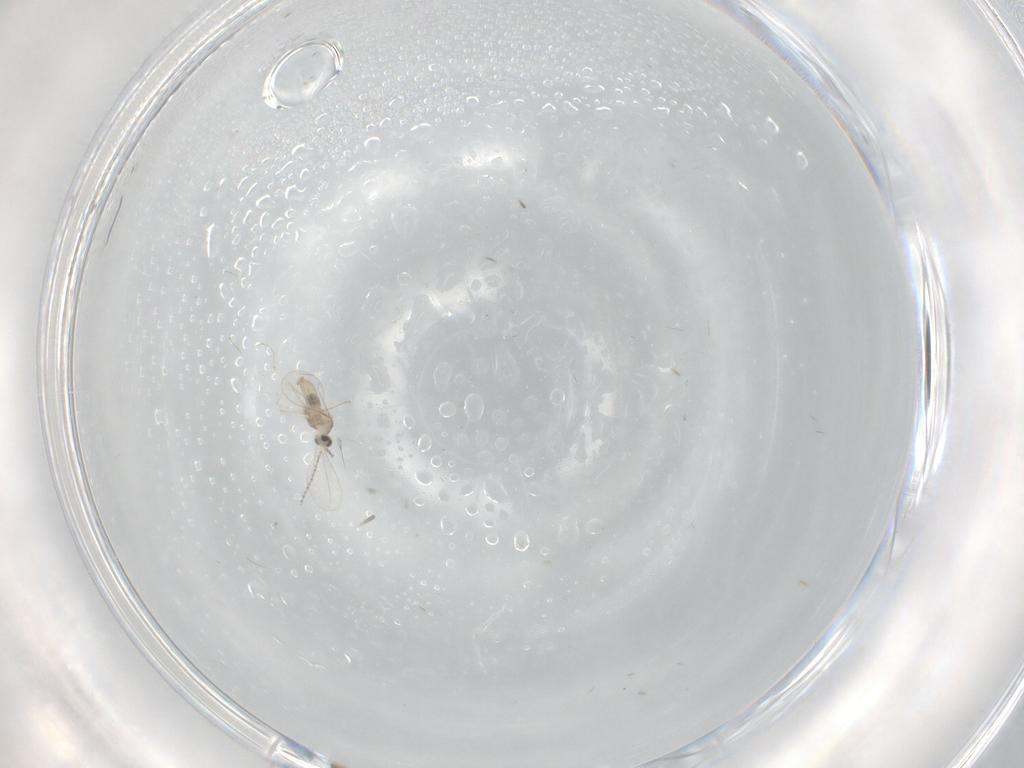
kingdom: Animalia
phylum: Arthropoda
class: Insecta
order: Diptera
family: Cecidomyiidae
